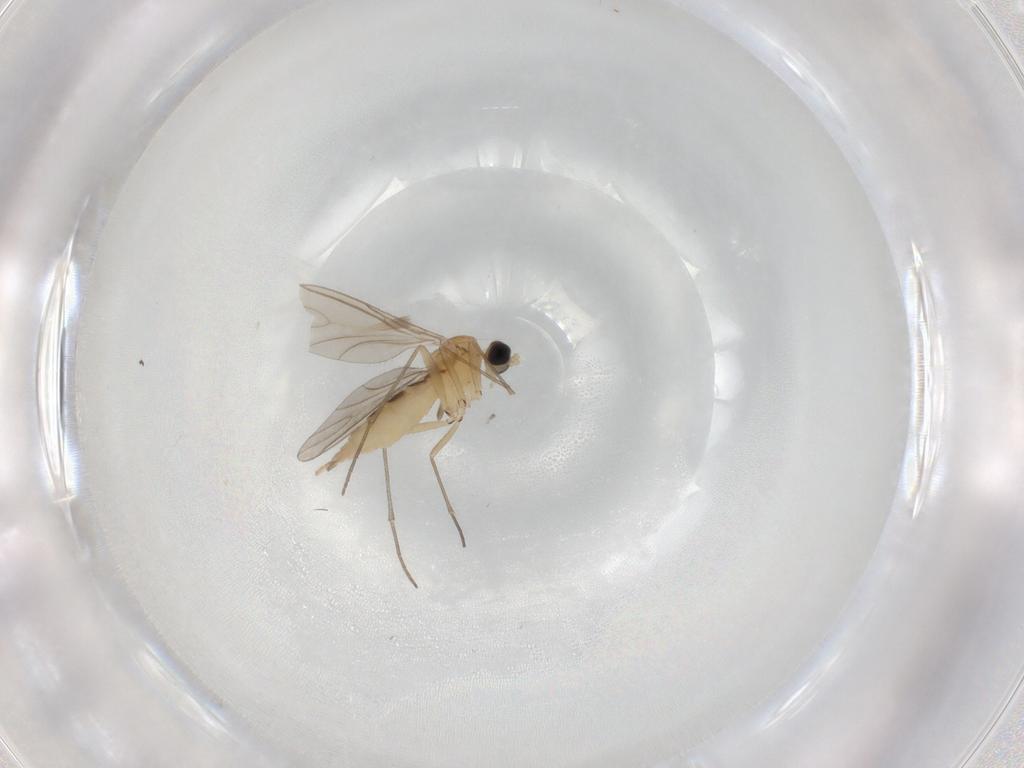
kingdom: Animalia
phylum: Arthropoda
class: Insecta
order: Diptera
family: Sciaridae
